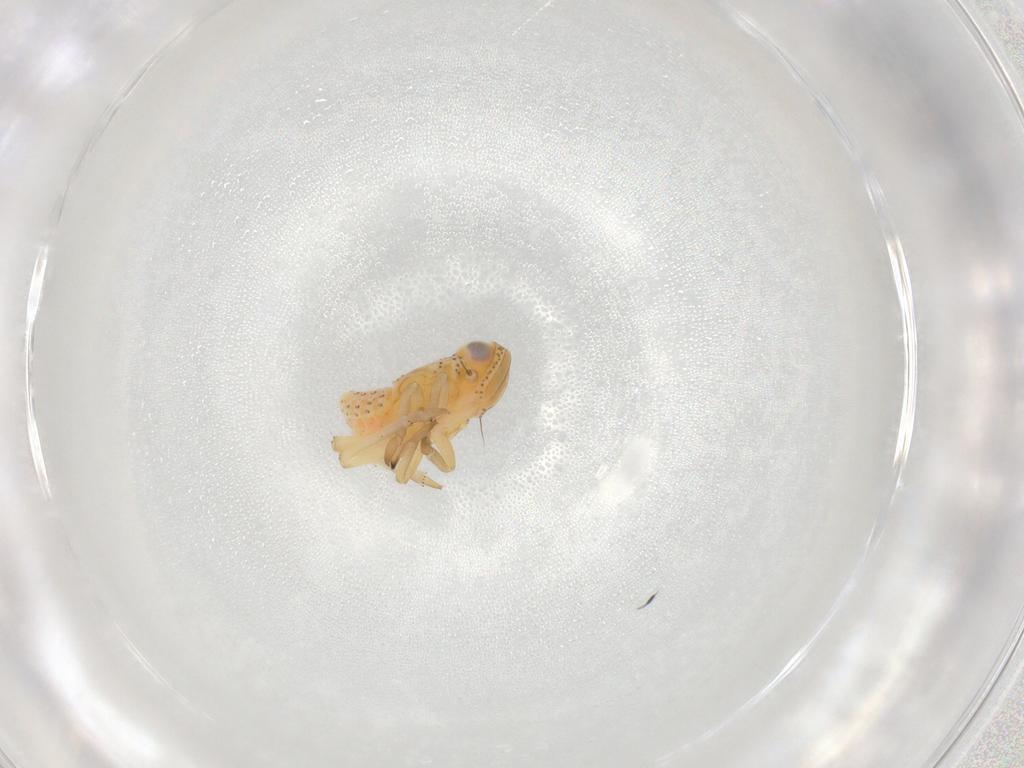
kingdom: Animalia
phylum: Arthropoda
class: Insecta
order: Hemiptera
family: Tropiduchidae
